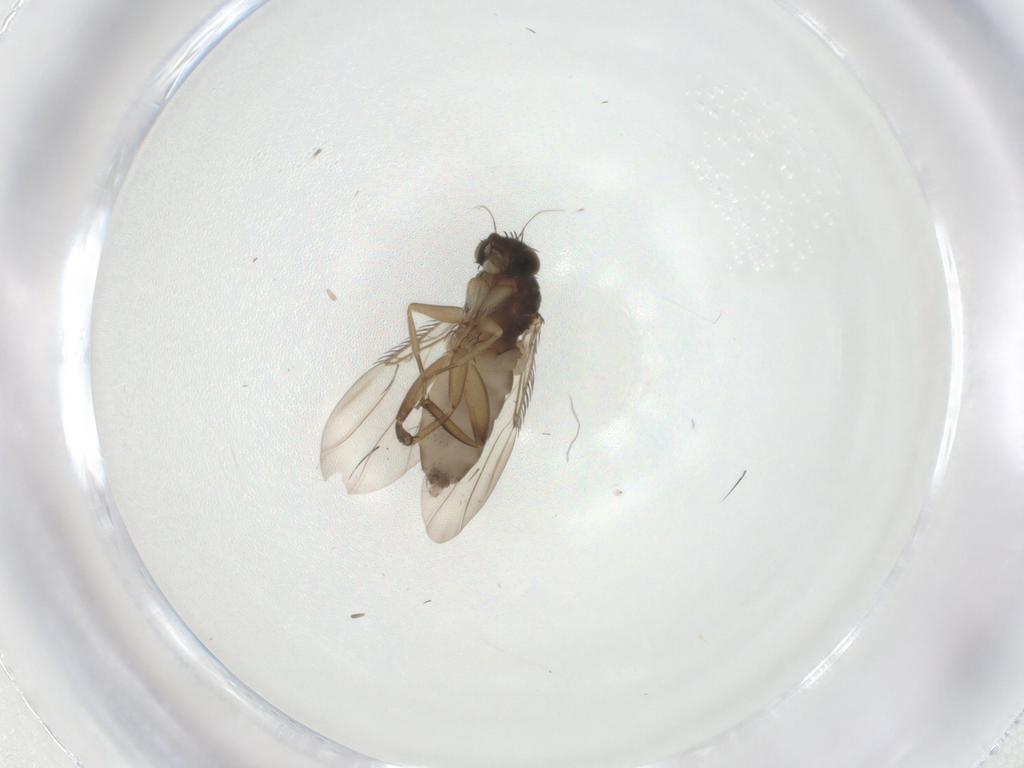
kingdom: Animalia
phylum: Arthropoda
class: Insecta
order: Diptera
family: Phoridae
